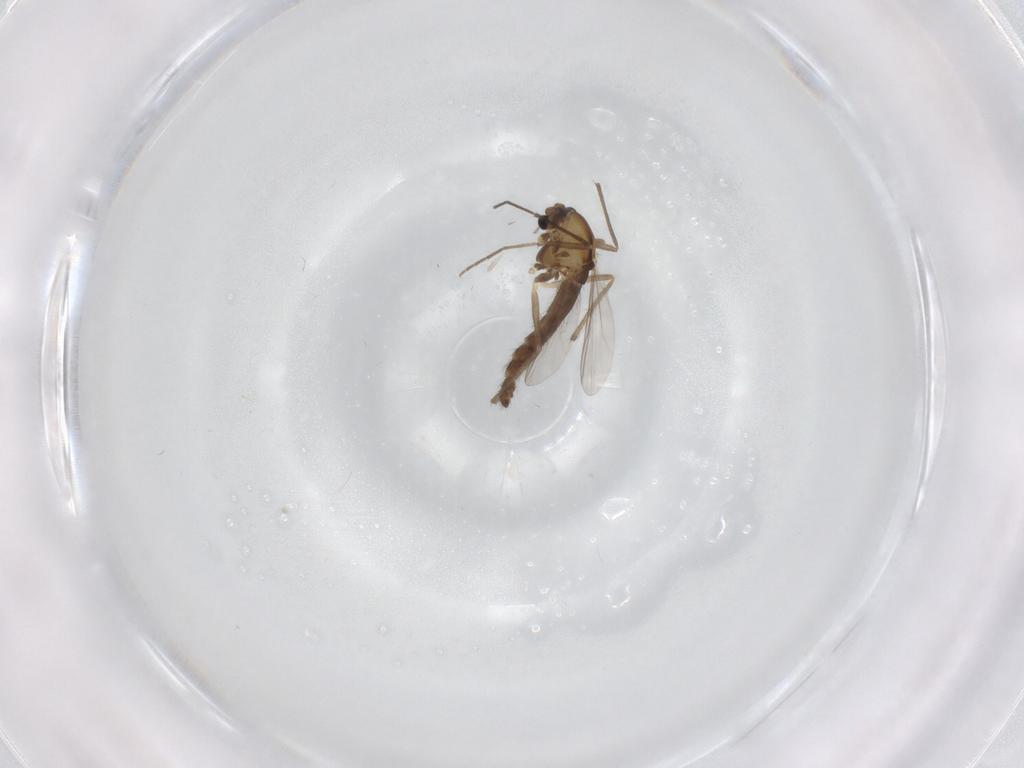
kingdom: Animalia
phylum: Arthropoda
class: Insecta
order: Diptera
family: Chironomidae
